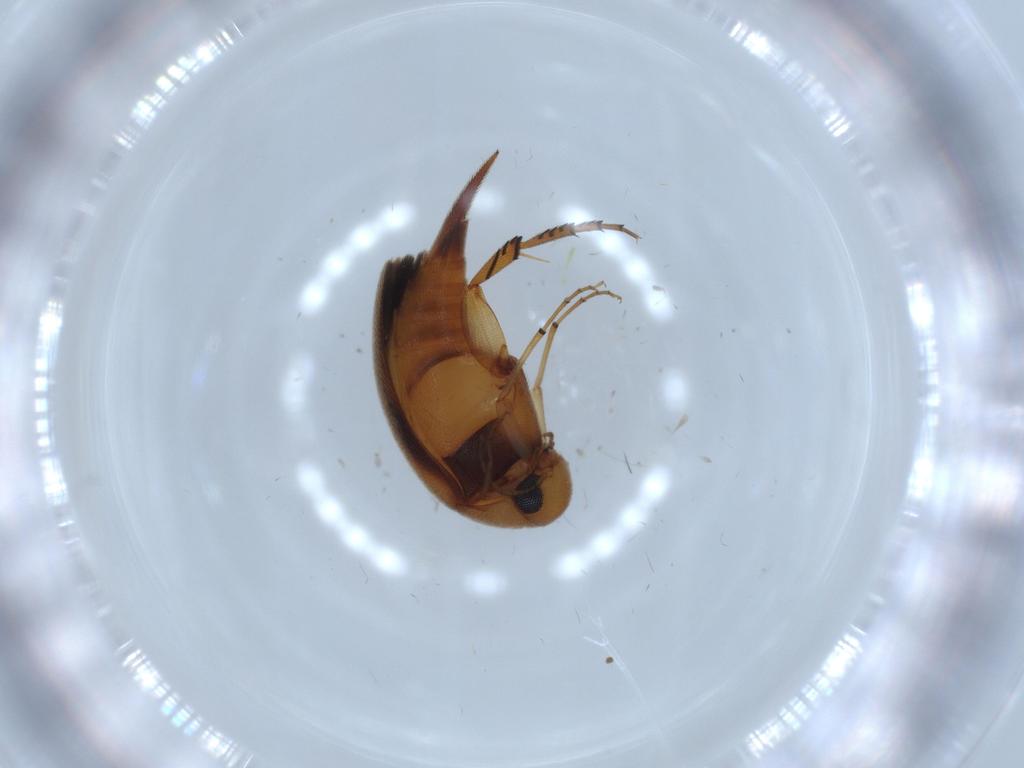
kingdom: Animalia
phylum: Arthropoda
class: Insecta
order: Coleoptera
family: Mordellidae
